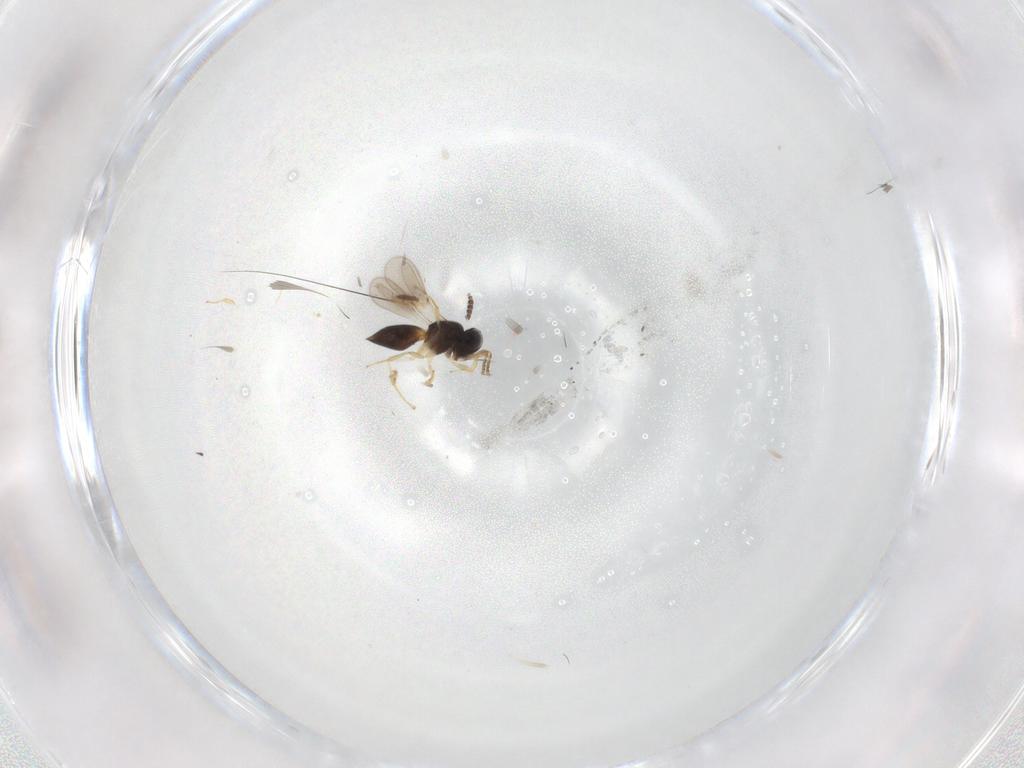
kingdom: Animalia
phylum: Arthropoda
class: Insecta
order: Hymenoptera
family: Scelionidae
